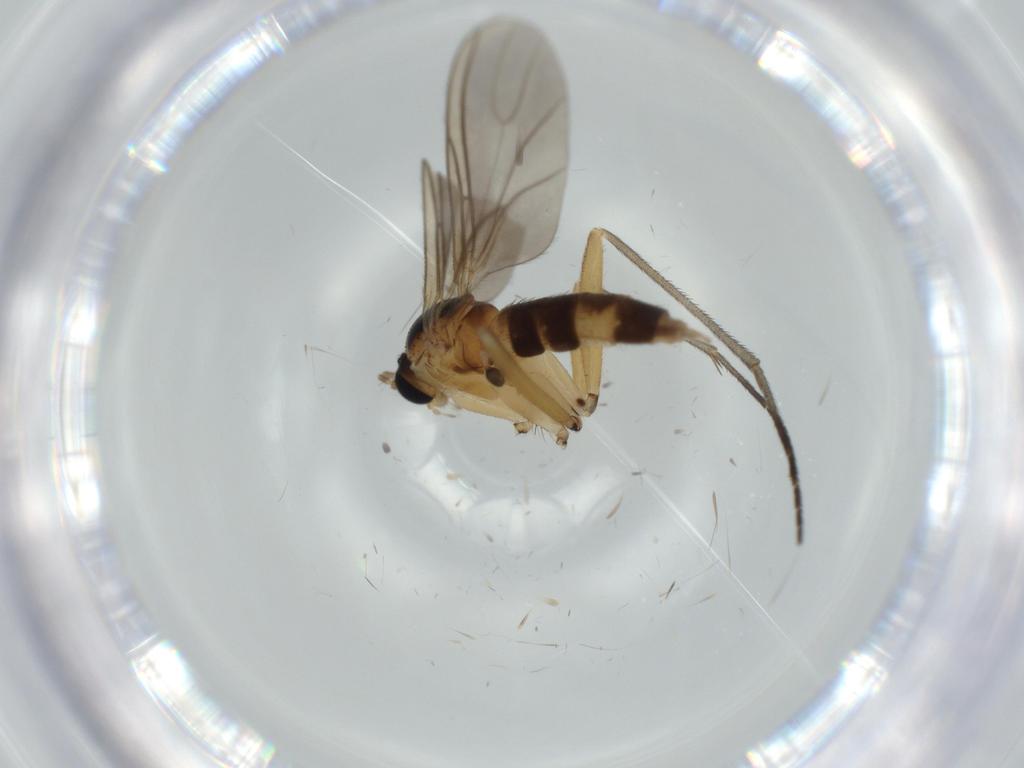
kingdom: Animalia
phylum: Arthropoda
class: Insecta
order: Diptera
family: Sciaridae
